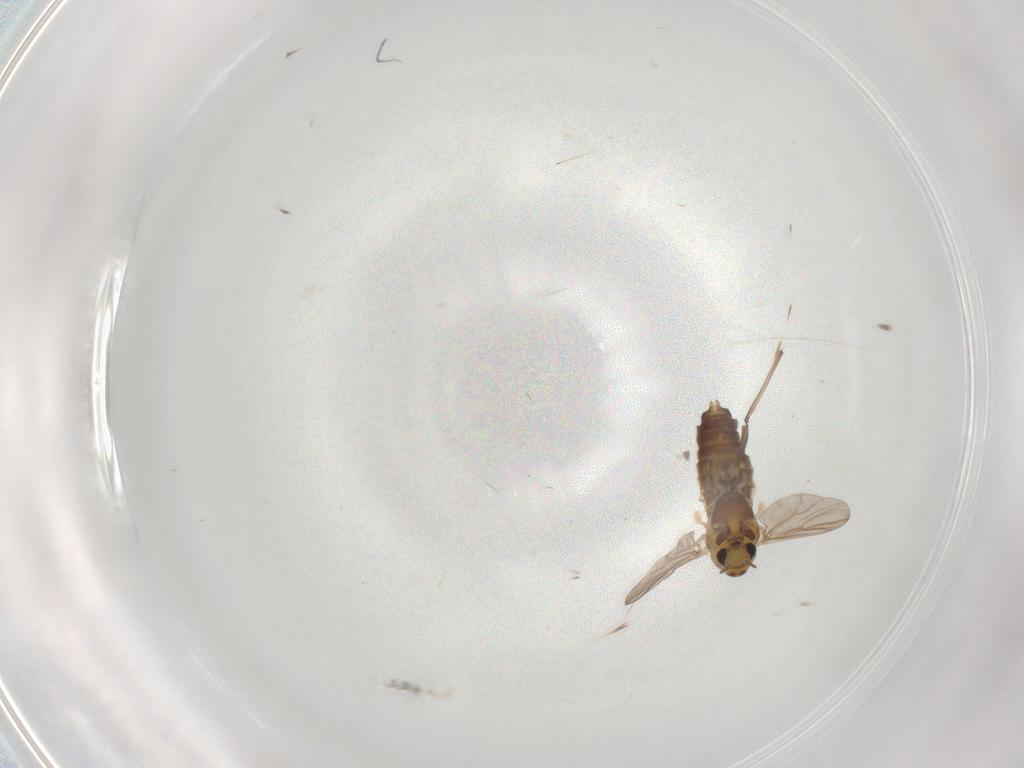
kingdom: Animalia
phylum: Arthropoda
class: Insecta
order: Diptera
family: Chironomidae
